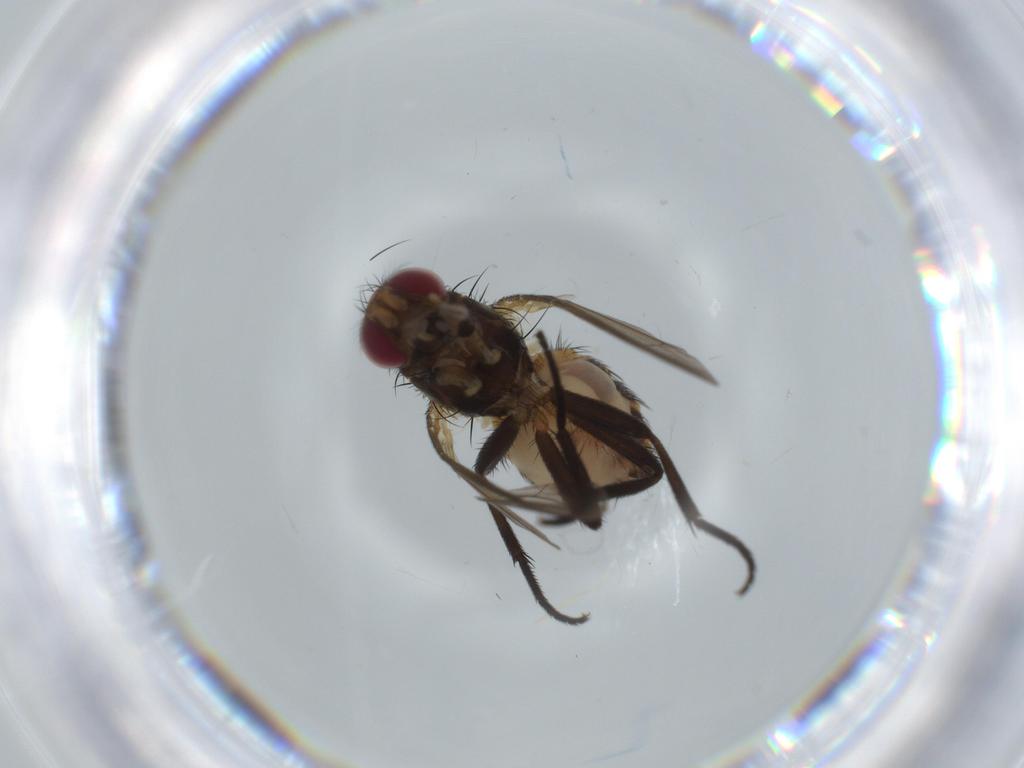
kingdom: Animalia
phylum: Arthropoda
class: Insecta
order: Diptera
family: Anthomyiidae
